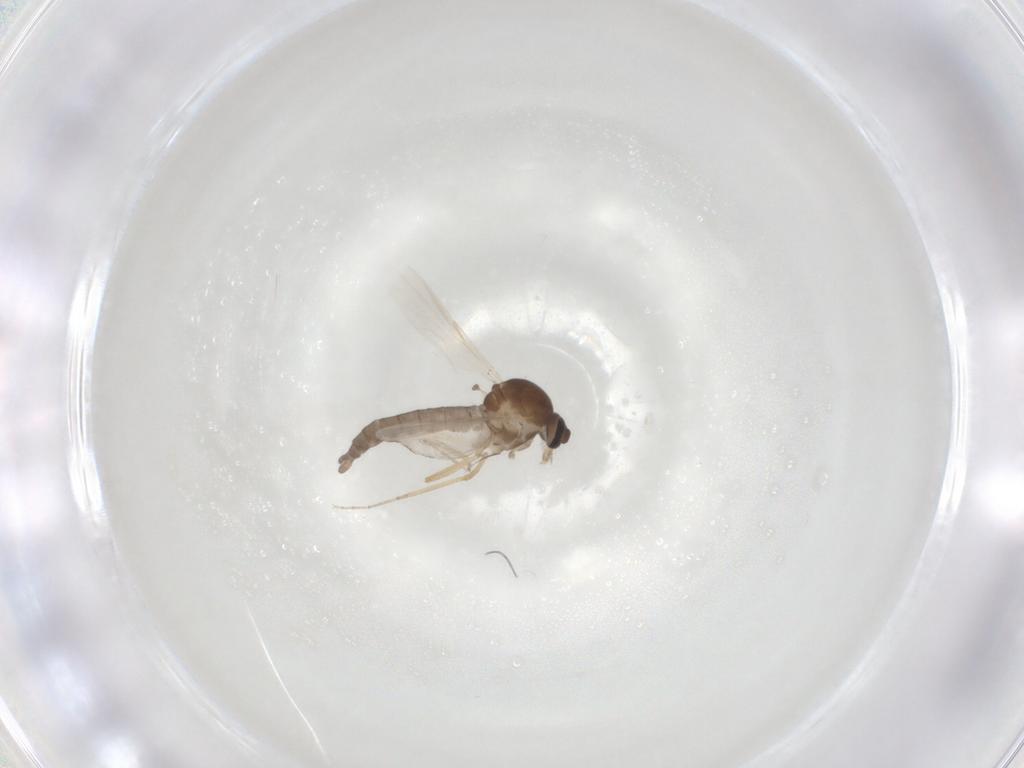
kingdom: Animalia
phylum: Arthropoda
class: Insecta
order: Diptera
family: Ceratopogonidae
